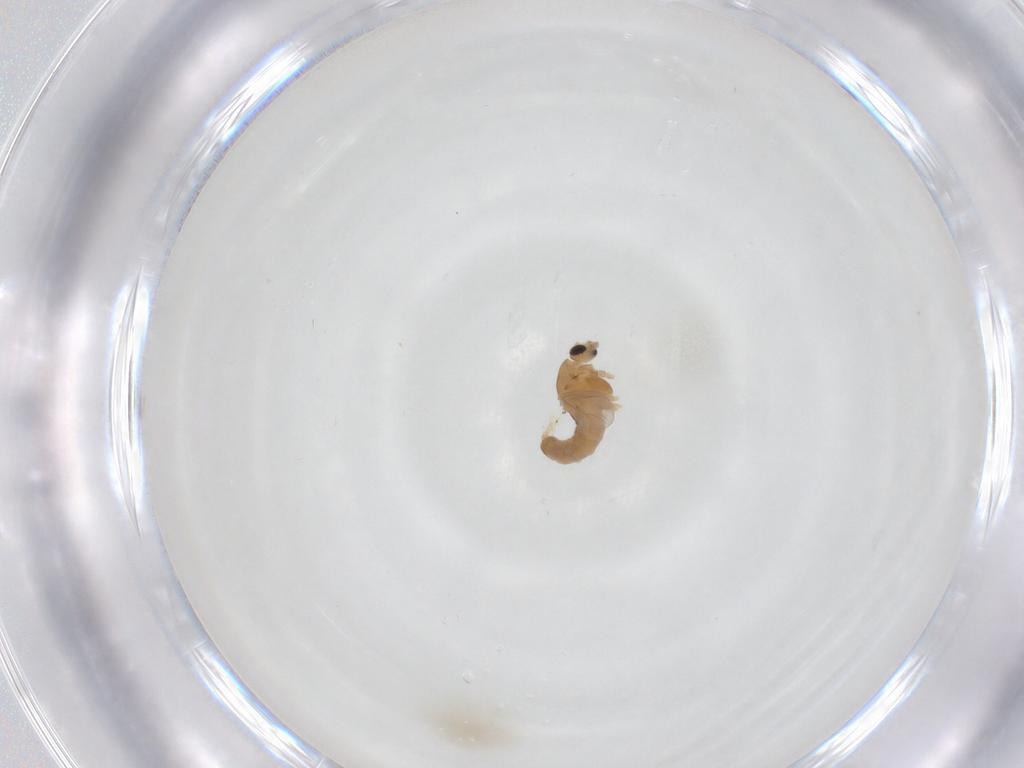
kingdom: Animalia
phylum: Arthropoda
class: Insecta
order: Diptera
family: Chironomidae
